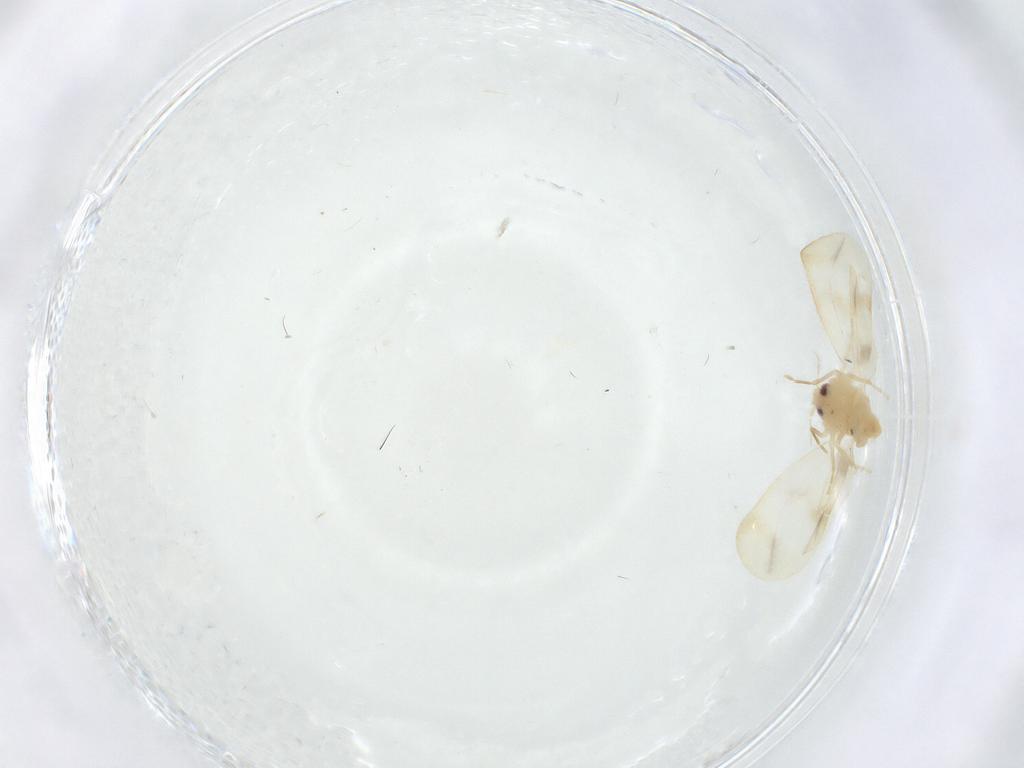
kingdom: Animalia
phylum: Arthropoda
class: Insecta
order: Hemiptera
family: Aleyrodidae
